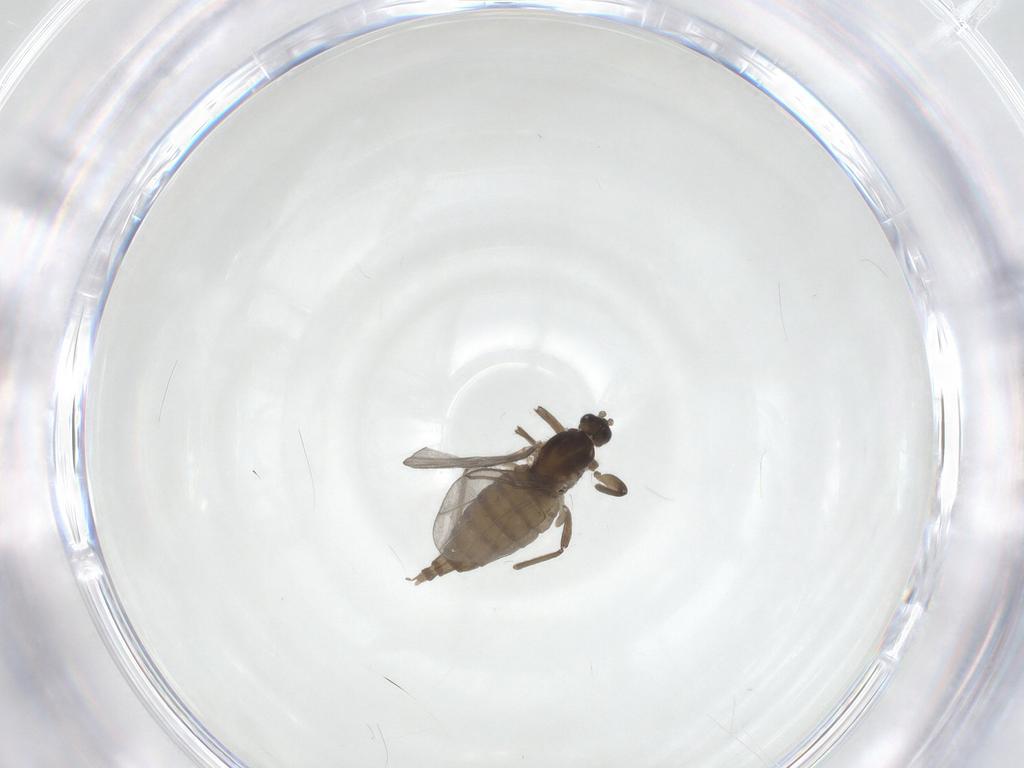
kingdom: Animalia
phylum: Arthropoda
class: Insecta
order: Diptera
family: Cecidomyiidae
